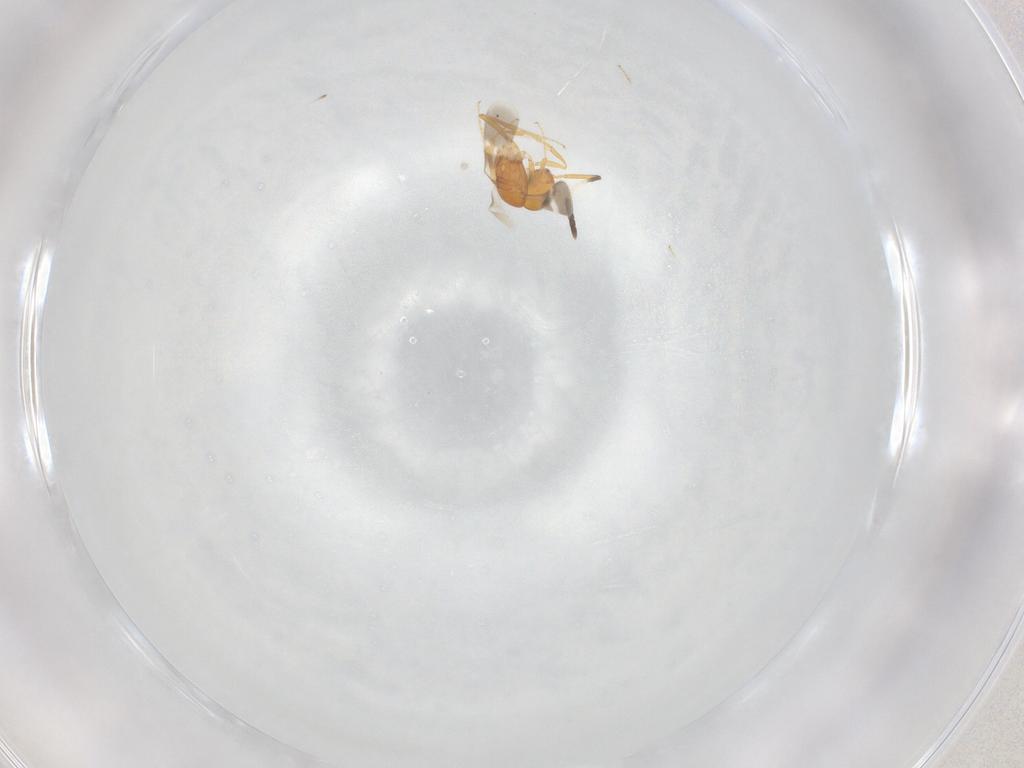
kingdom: Animalia
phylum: Arthropoda
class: Insecta
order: Hymenoptera
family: Scelionidae
